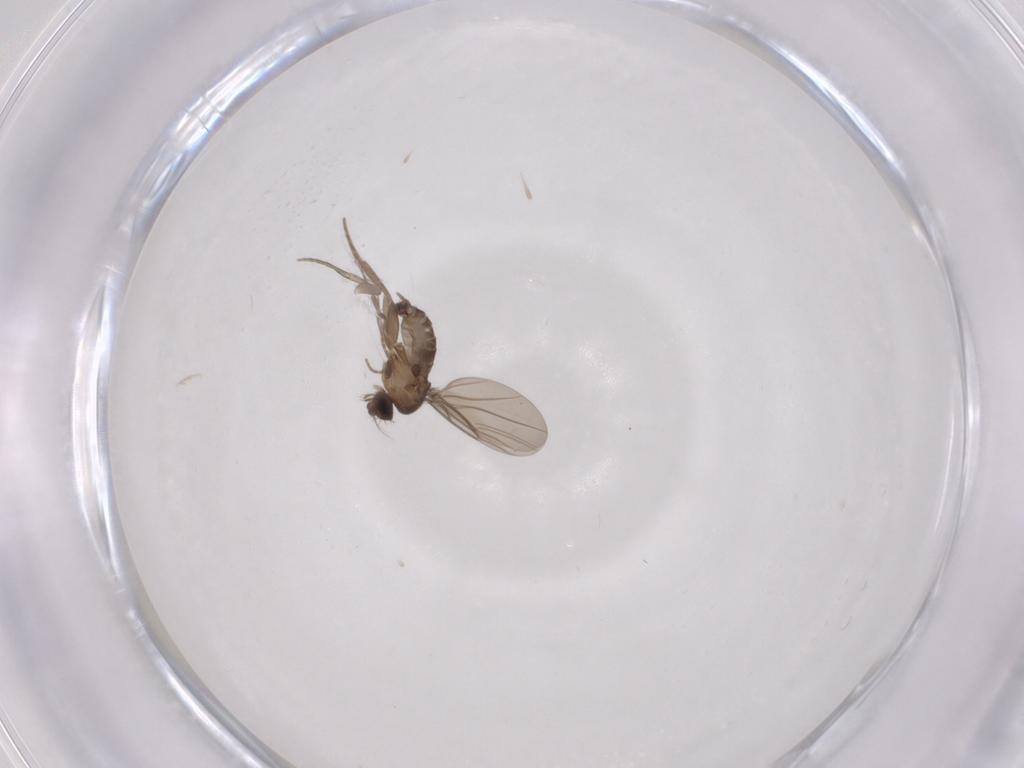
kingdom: Animalia
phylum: Arthropoda
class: Insecta
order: Diptera
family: Phoridae
